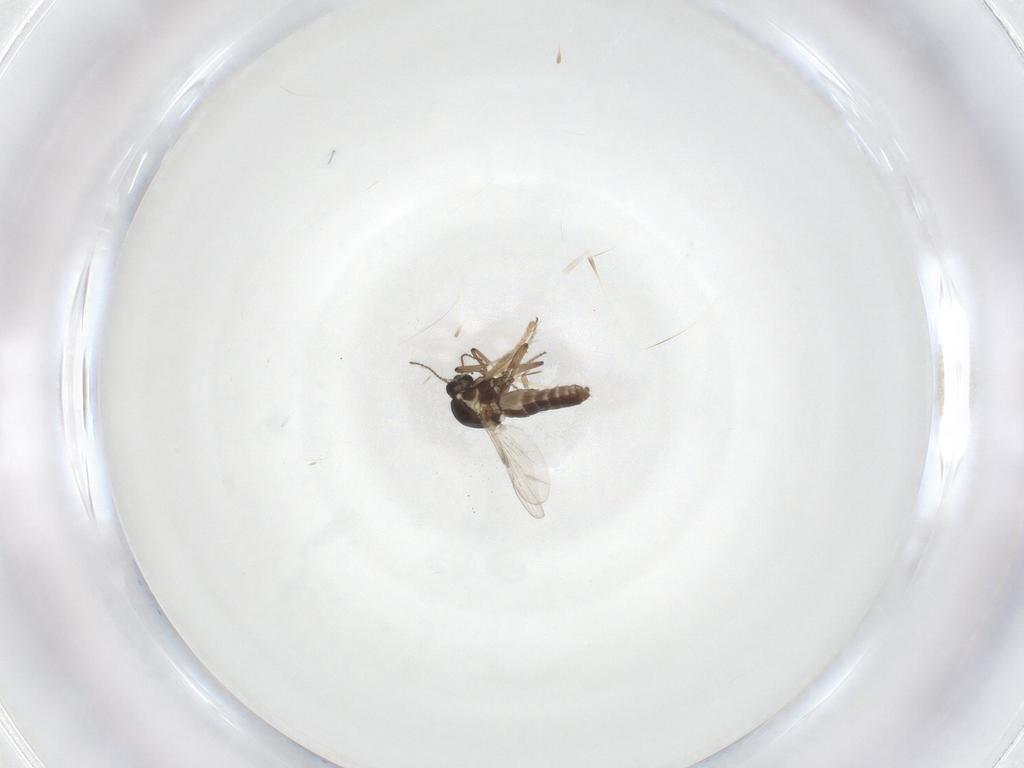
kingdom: Animalia
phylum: Arthropoda
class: Insecta
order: Diptera
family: Ceratopogonidae
